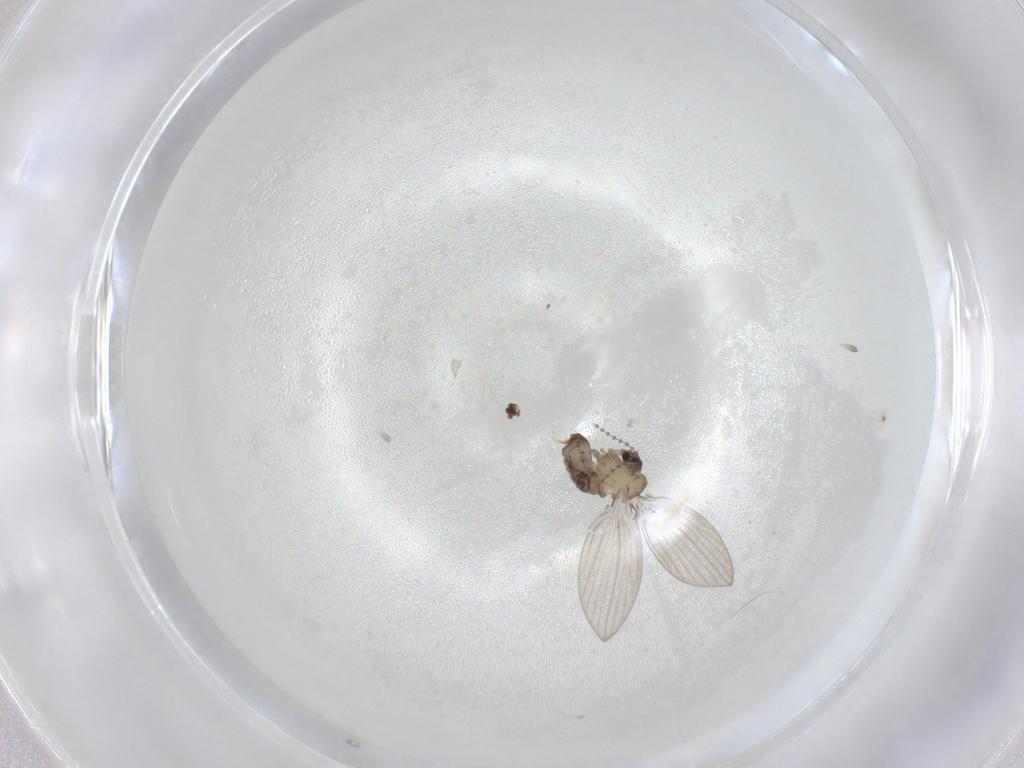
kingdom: Animalia
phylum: Arthropoda
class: Insecta
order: Diptera
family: Psychodidae
